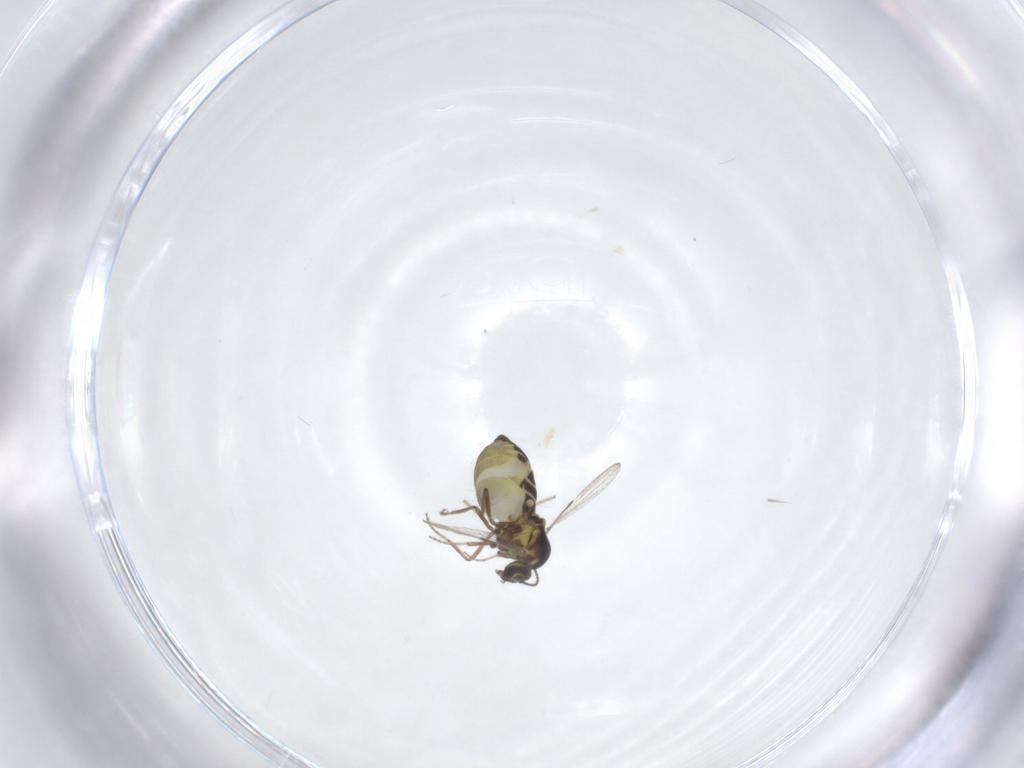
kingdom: Animalia
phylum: Arthropoda
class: Insecta
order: Diptera
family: Ceratopogonidae
